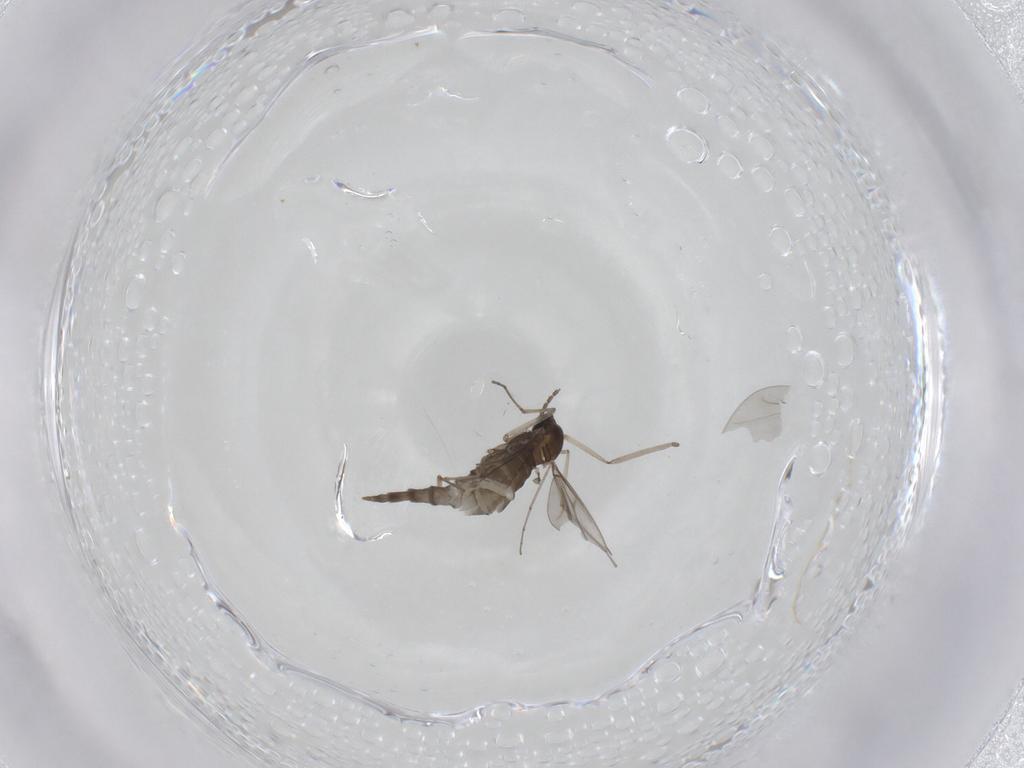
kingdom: Animalia
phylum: Arthropoda
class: Insecta
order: Diptera
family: Cecidomyiidae
